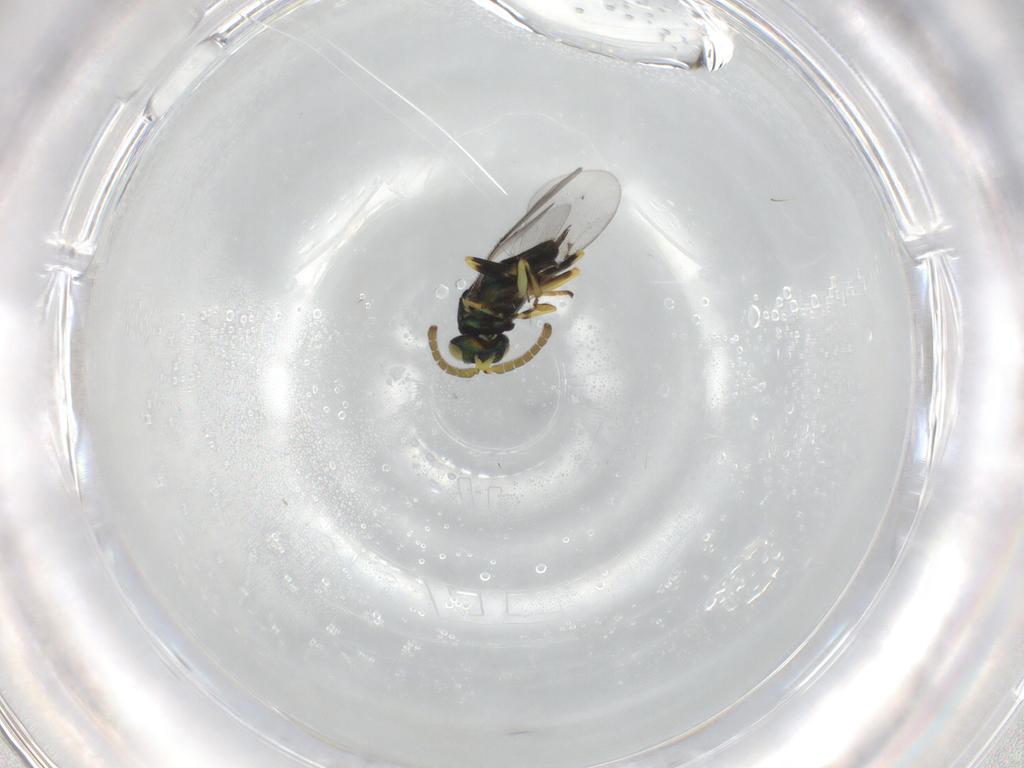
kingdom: Animalia
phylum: Arthropoda
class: Insecta
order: Hymenoptera
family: Encyrtidae
